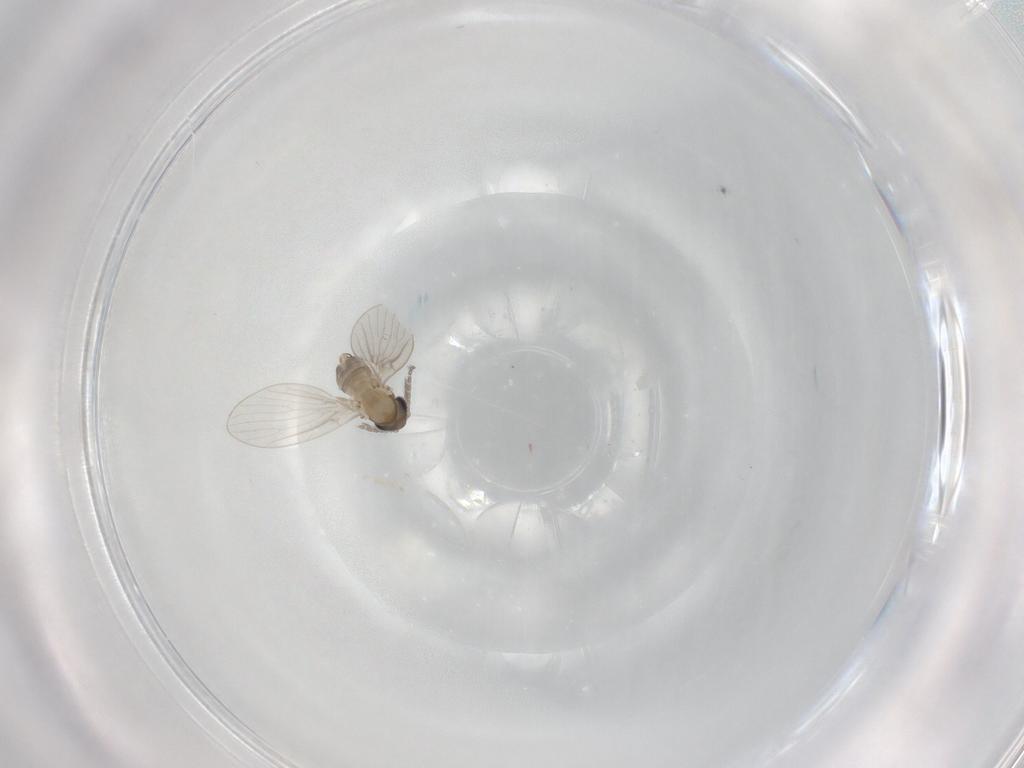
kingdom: Animalia
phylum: Arthropoda
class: Insecta
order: Diptera
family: Psychodidae
